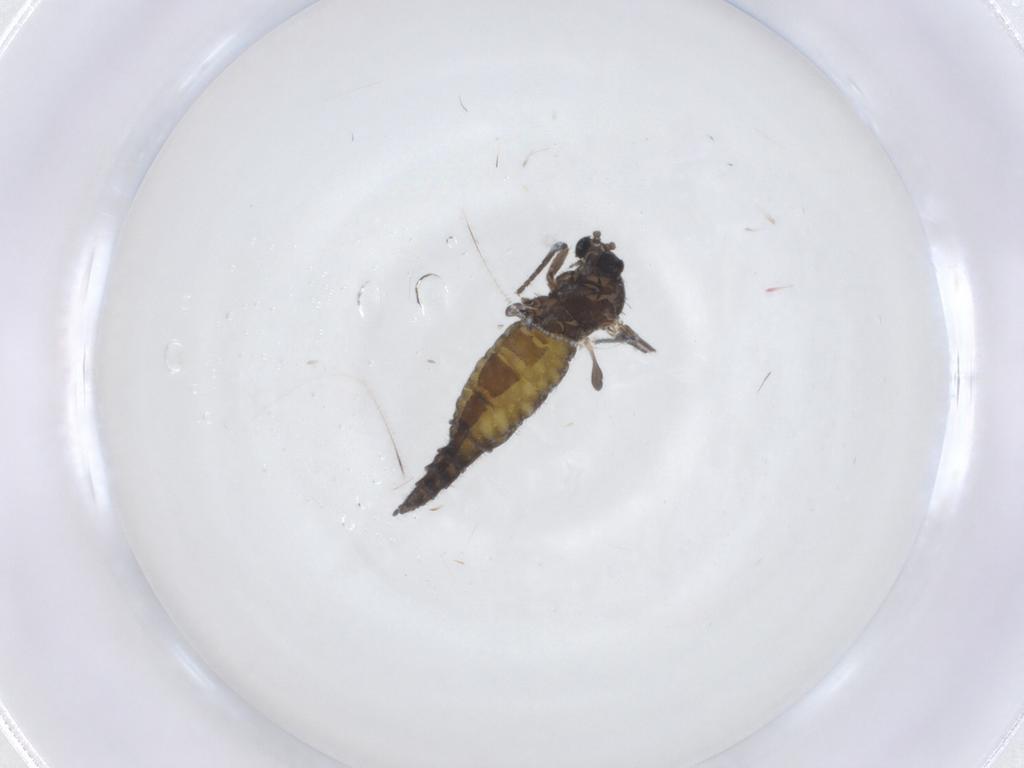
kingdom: Animalia
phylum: Arthropoda
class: Insecta
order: Diptera
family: Sciaridae
